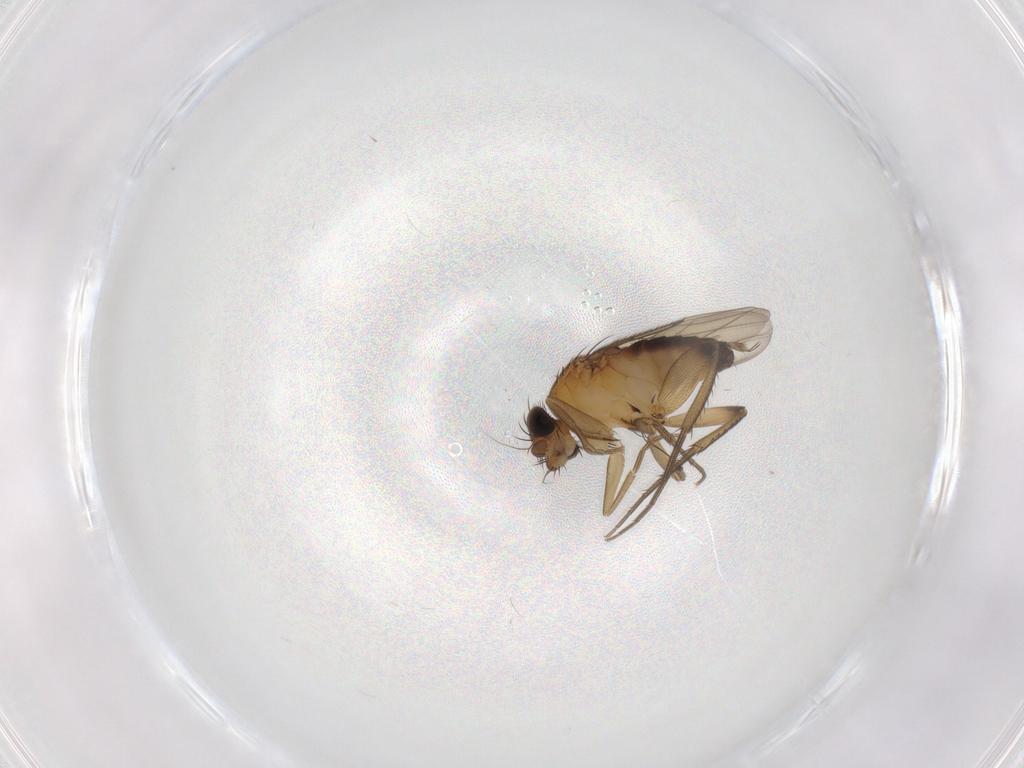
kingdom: Animalia
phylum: Arthropoda
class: Insecta
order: Diptera
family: Phoridae
